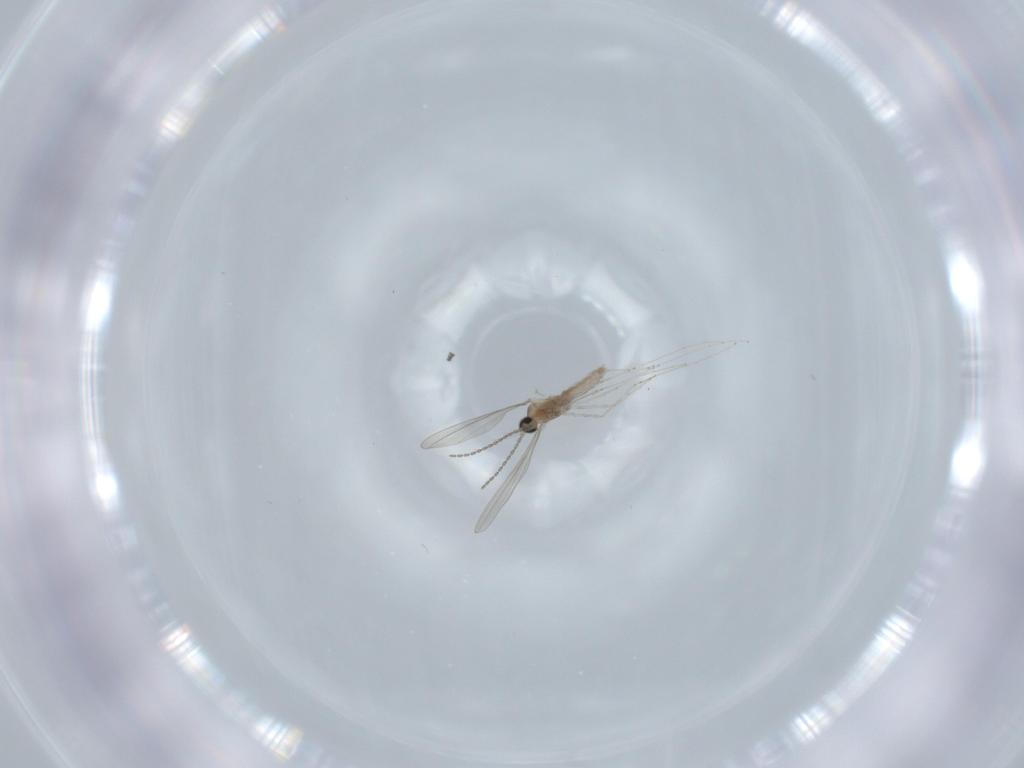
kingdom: Animalia
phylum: Arthropoda
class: Insecta
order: Diptera
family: Cecidomyiidae
